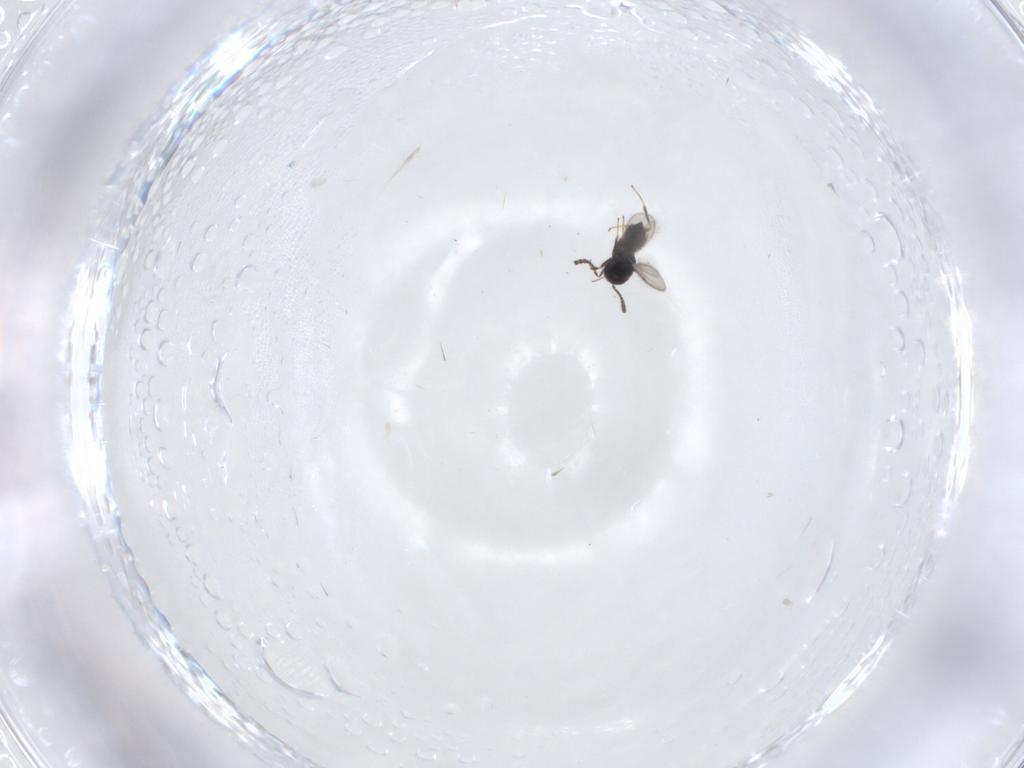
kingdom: Animalia
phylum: Arthropoda
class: Insecta
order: Hymenoptera
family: Scelionidae
